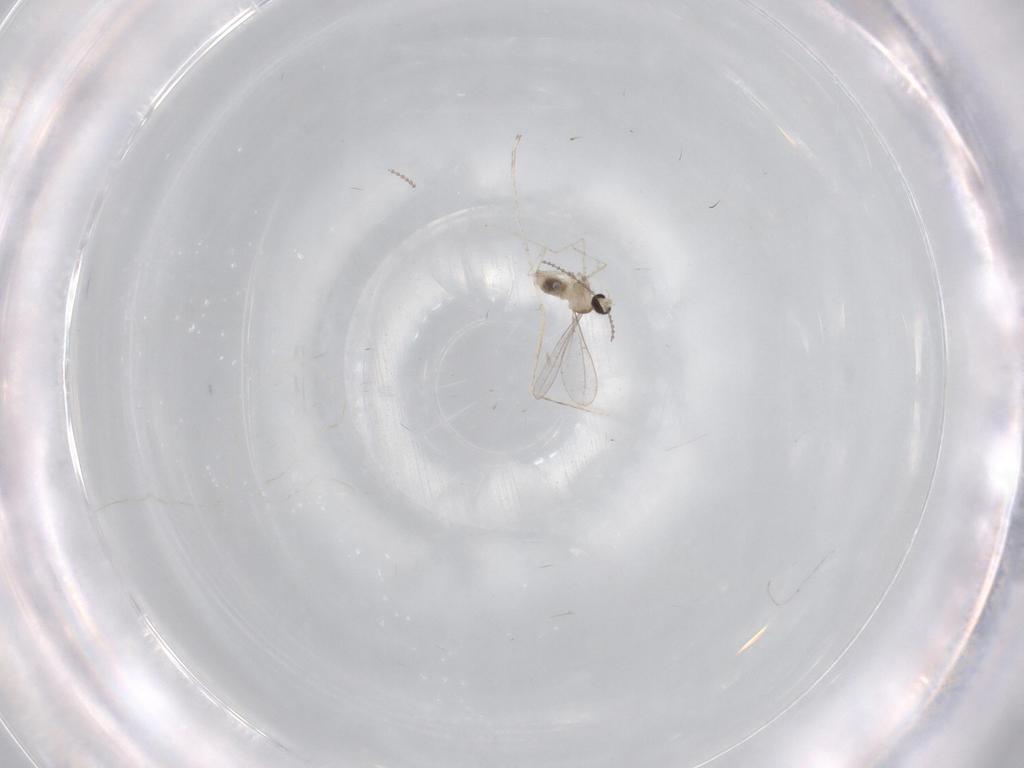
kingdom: Animalia
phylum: Arthropoda
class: Insecta
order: Diptera
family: Cecidomyiidae
